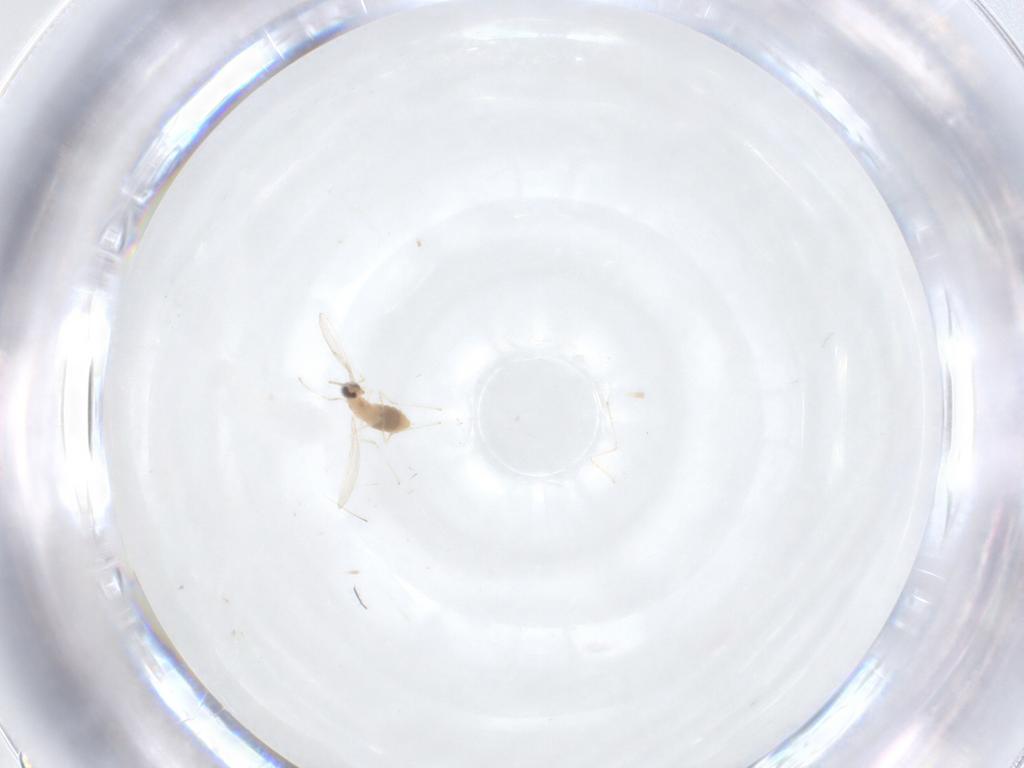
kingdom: Animalia
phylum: Arthropoda
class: Insecta
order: Diptera
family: Cecidomyiidae
